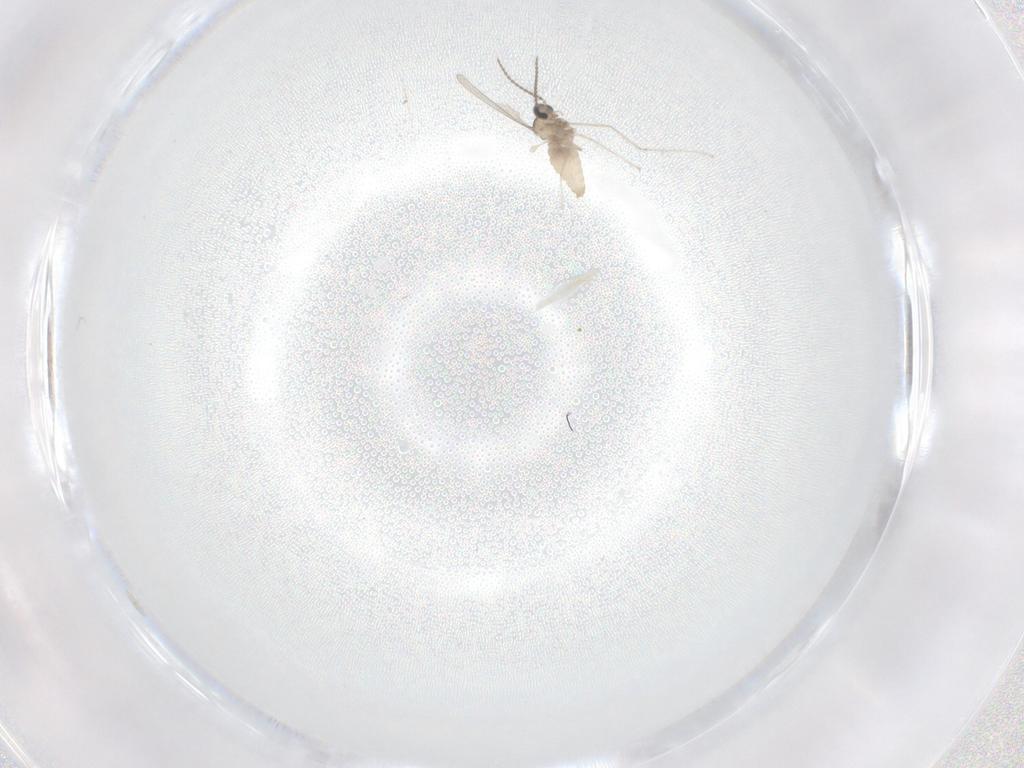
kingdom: Animalia
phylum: Arthropoda
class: Insecta
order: Diptera
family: Cecidomyiidae
